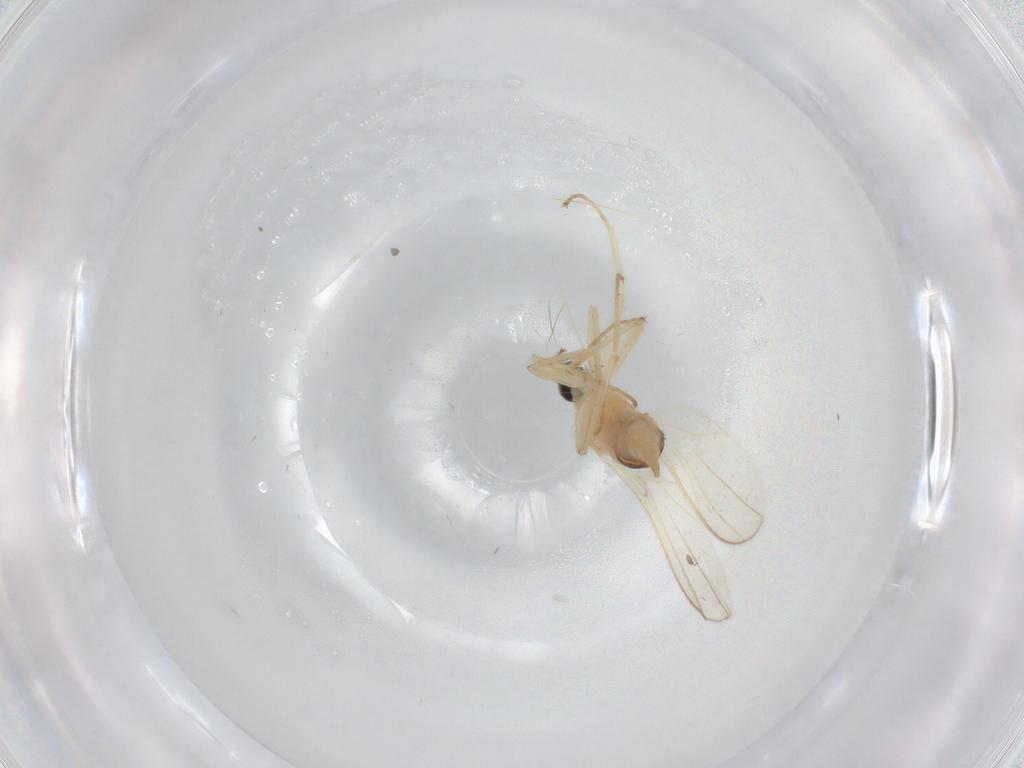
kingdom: Animalia
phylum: Arthropoda
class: Insecta
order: Diptera
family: Hybotidae
